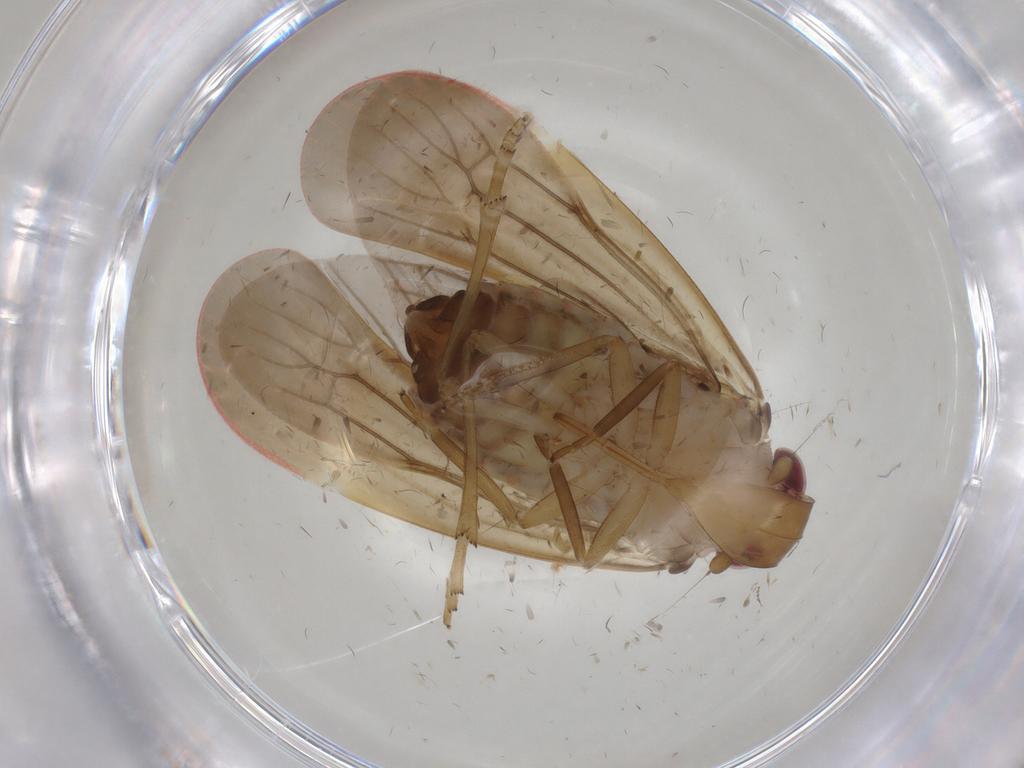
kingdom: Animalia
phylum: Arthropoda
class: Insecta
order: Hemiptera
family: Achilidae
